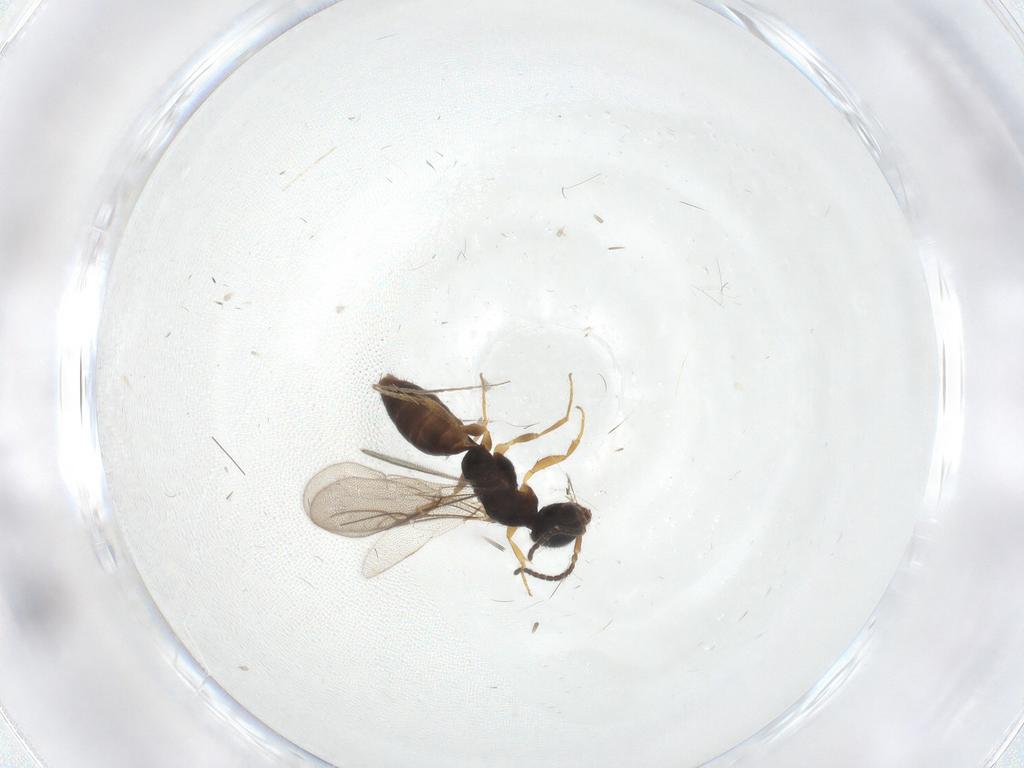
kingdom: Animalia
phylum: Arthropoda
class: Insecta
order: Hymenoptera
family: Bethylidae
